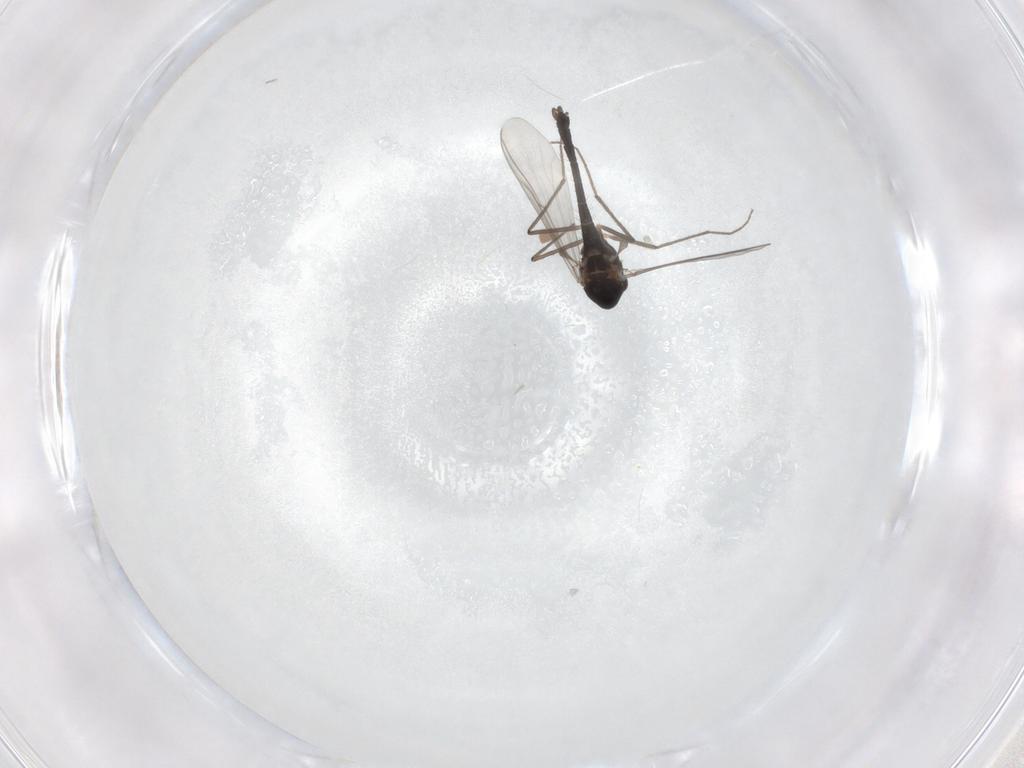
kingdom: Animalia
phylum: Arthropoda
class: Insecta
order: Diptera
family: Chironomidae
